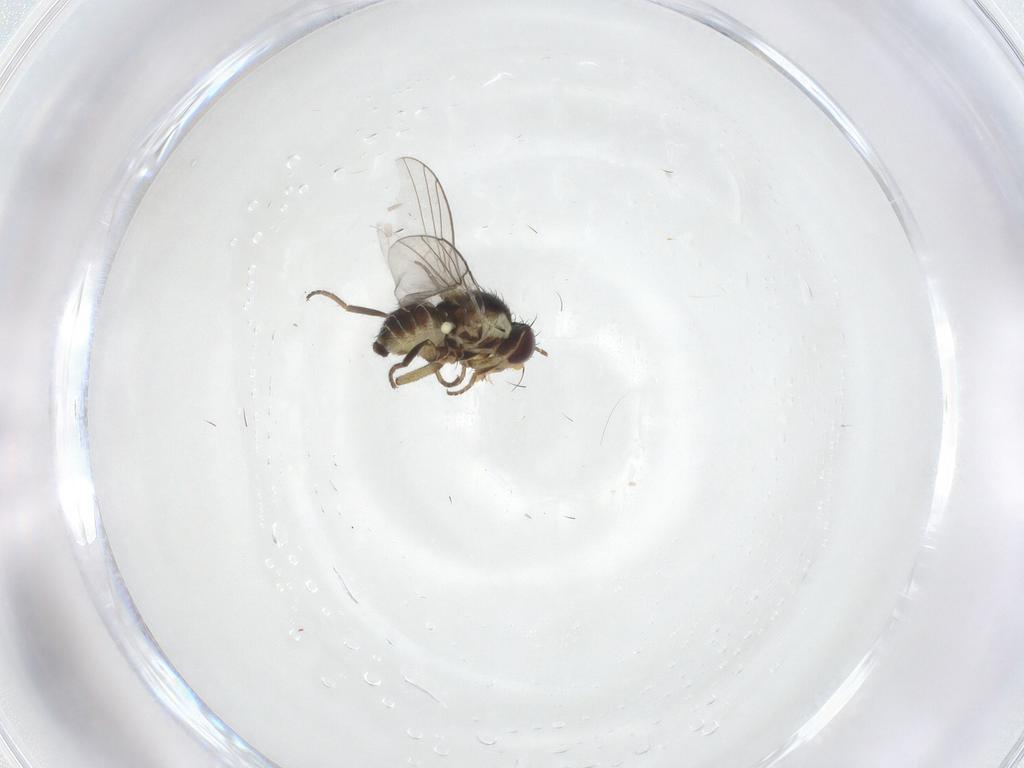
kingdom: Animalia
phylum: Arthropoda
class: Insecta
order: Diptera
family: Agromyzidae
